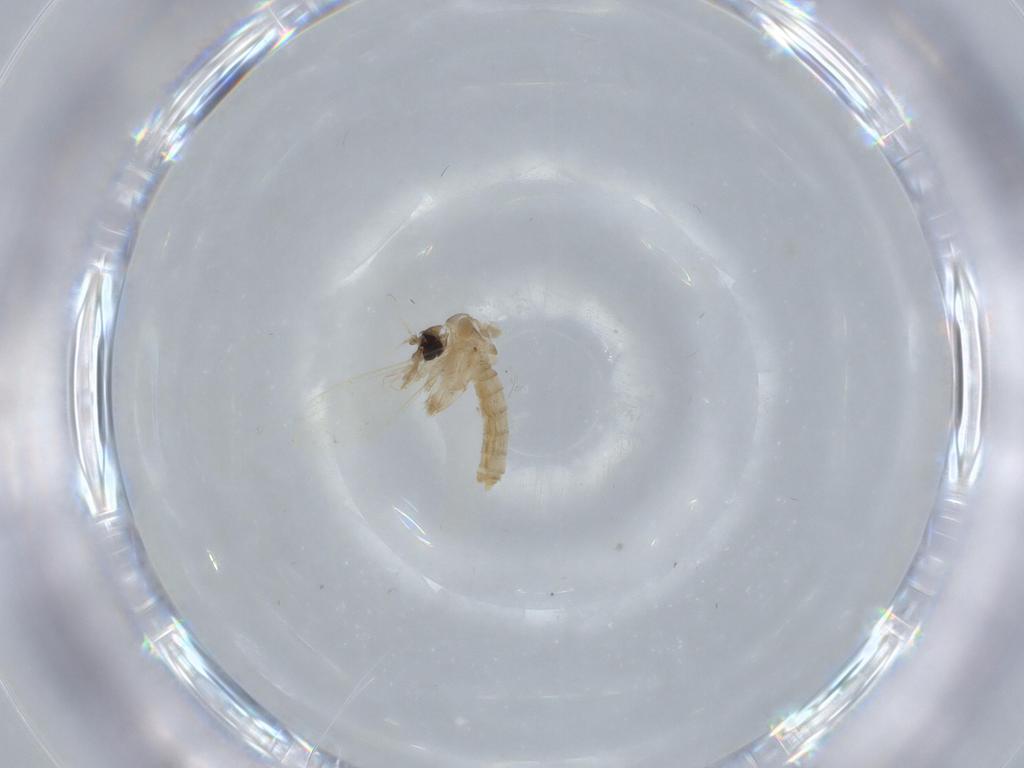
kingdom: Animalia
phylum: Arthropoda
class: Insecta
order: Diptera
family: Psychodidae
